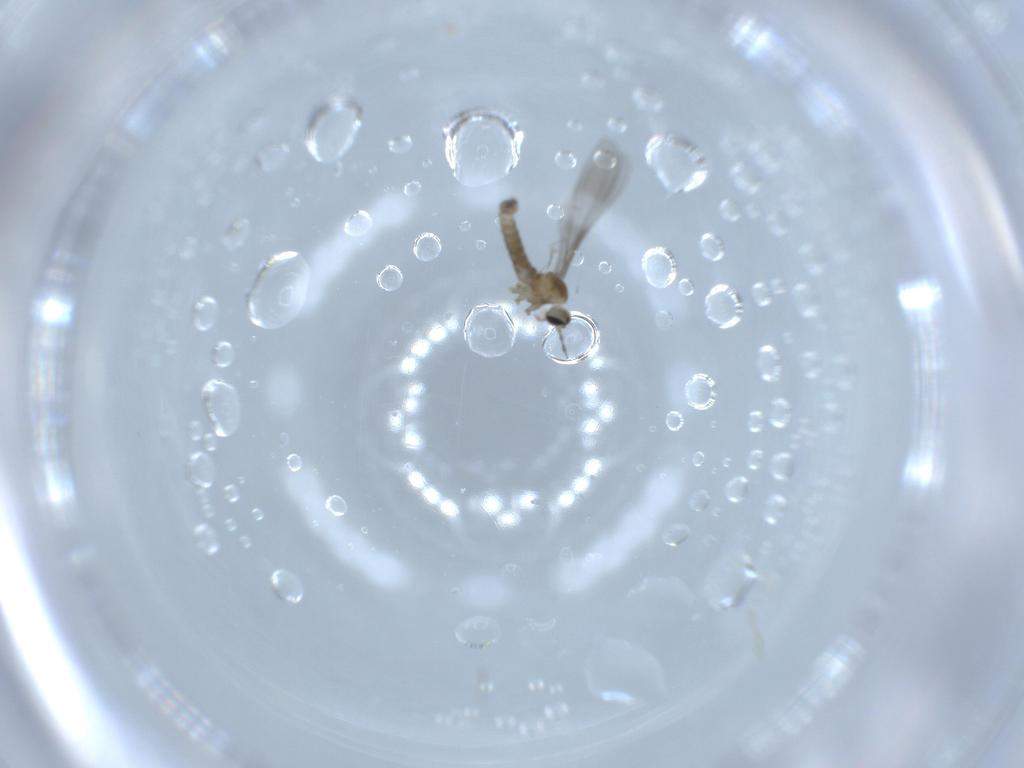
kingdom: Animalia
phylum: Arthropoda
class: Insecta
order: Diptera
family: Cecidomyiidae
